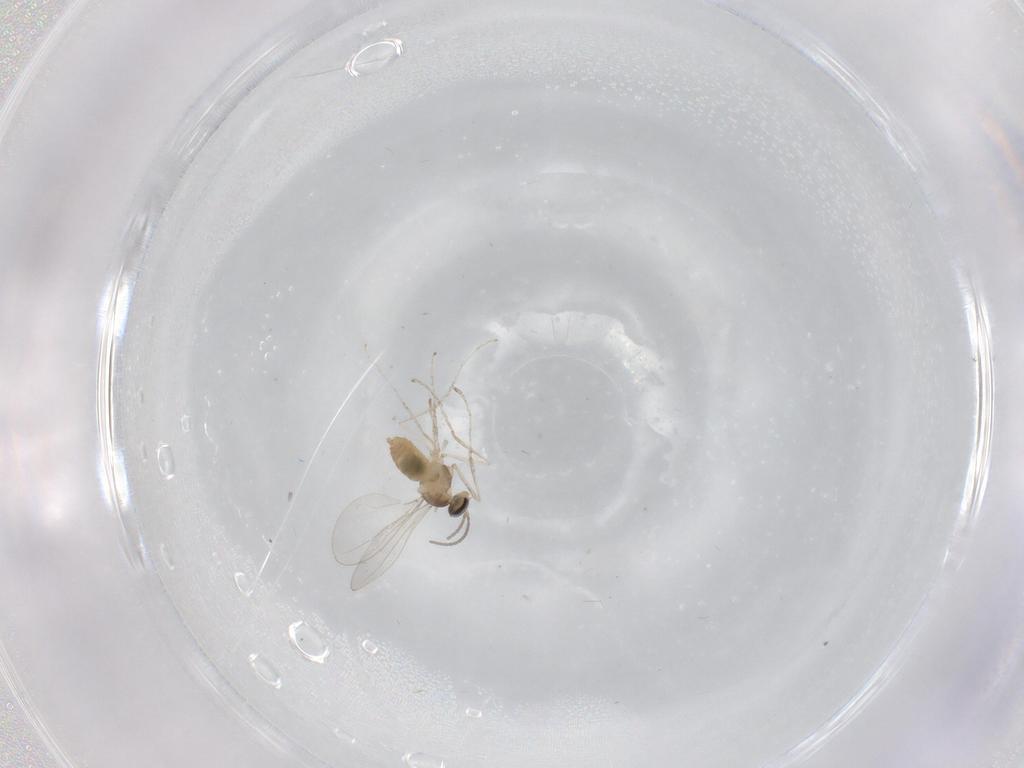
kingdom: Animalia
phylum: Arthropoda
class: Insecta
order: Diptera
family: Cecidomyiidae
